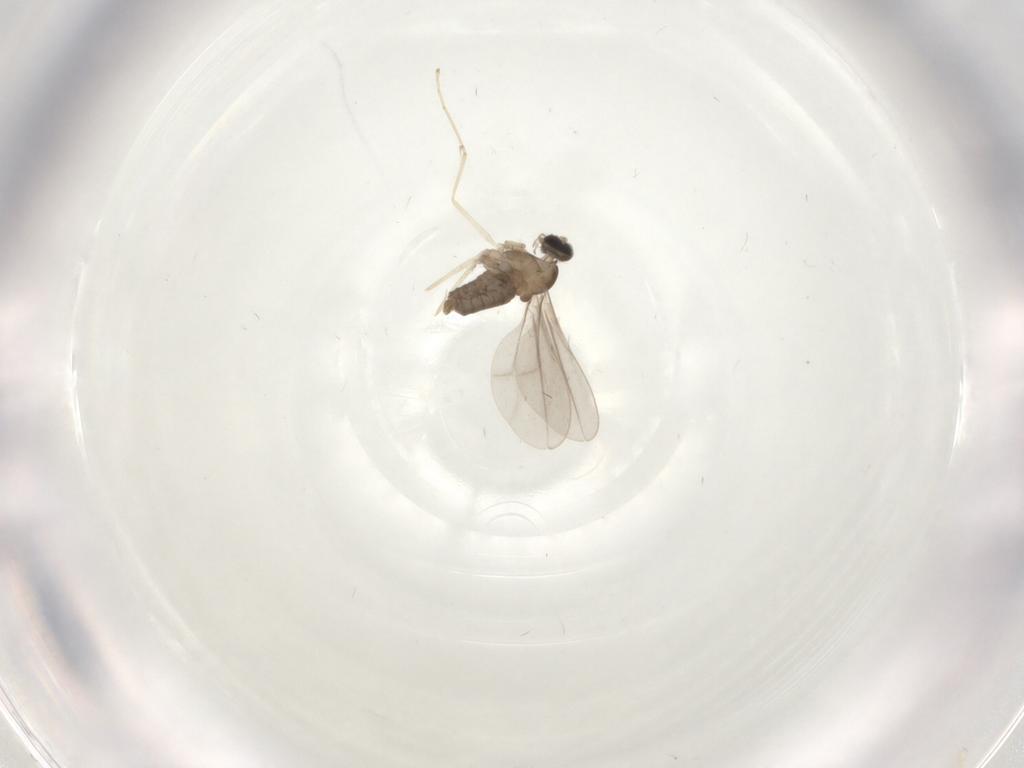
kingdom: Animalia
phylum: Arthropoda
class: Insecta
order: Diptera
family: Cecidomyiidae
